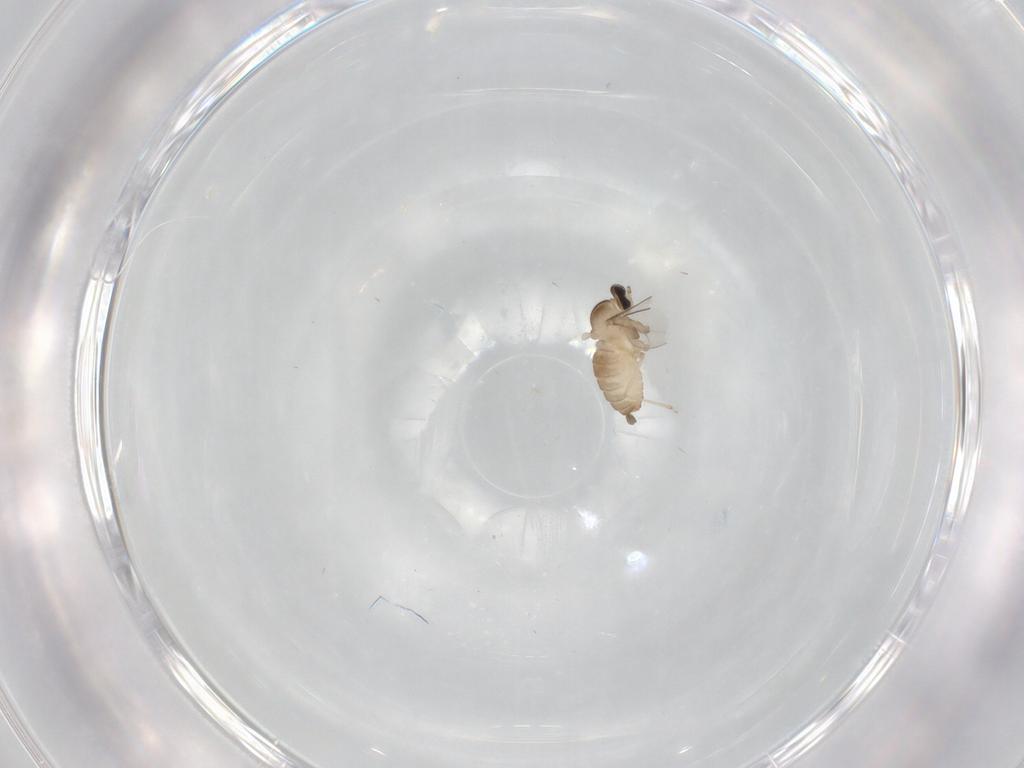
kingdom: Animalia
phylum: Arthropoda
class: Insecta
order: Diptera
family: Cecidomyiidae
